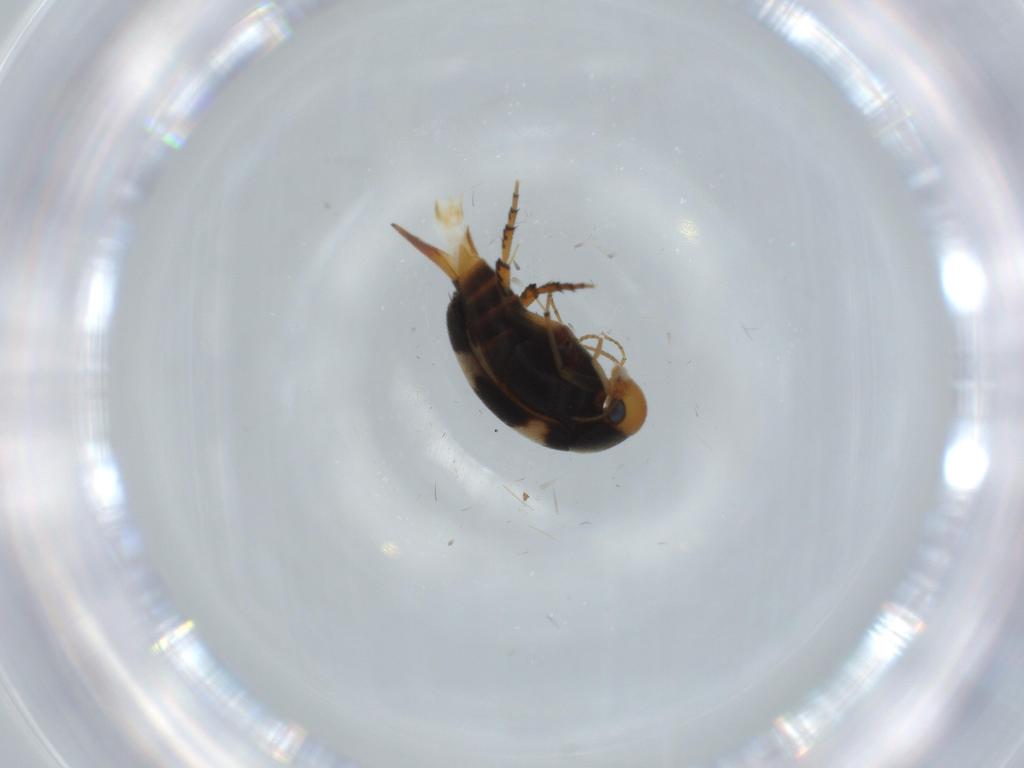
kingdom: Animalia
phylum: Arthropoda
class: Insecta
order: Coleoptera
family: Mordellidae
